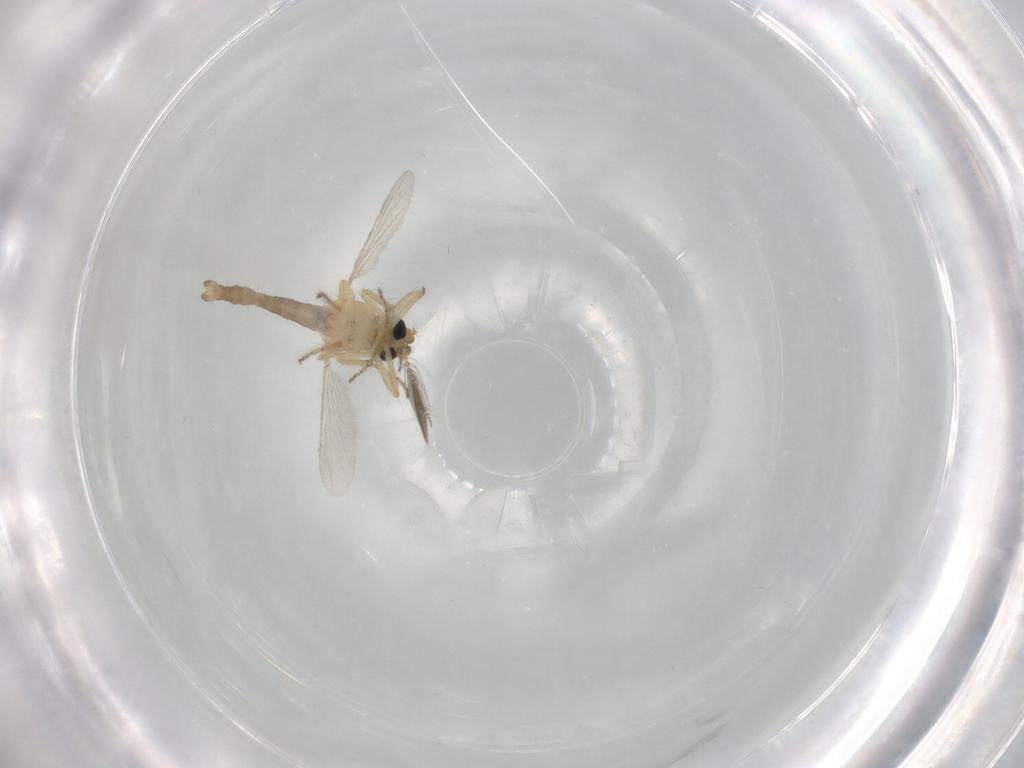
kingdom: Animalia
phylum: Arthropoda
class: Insecta
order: Diptera
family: Ceratopogonidae
